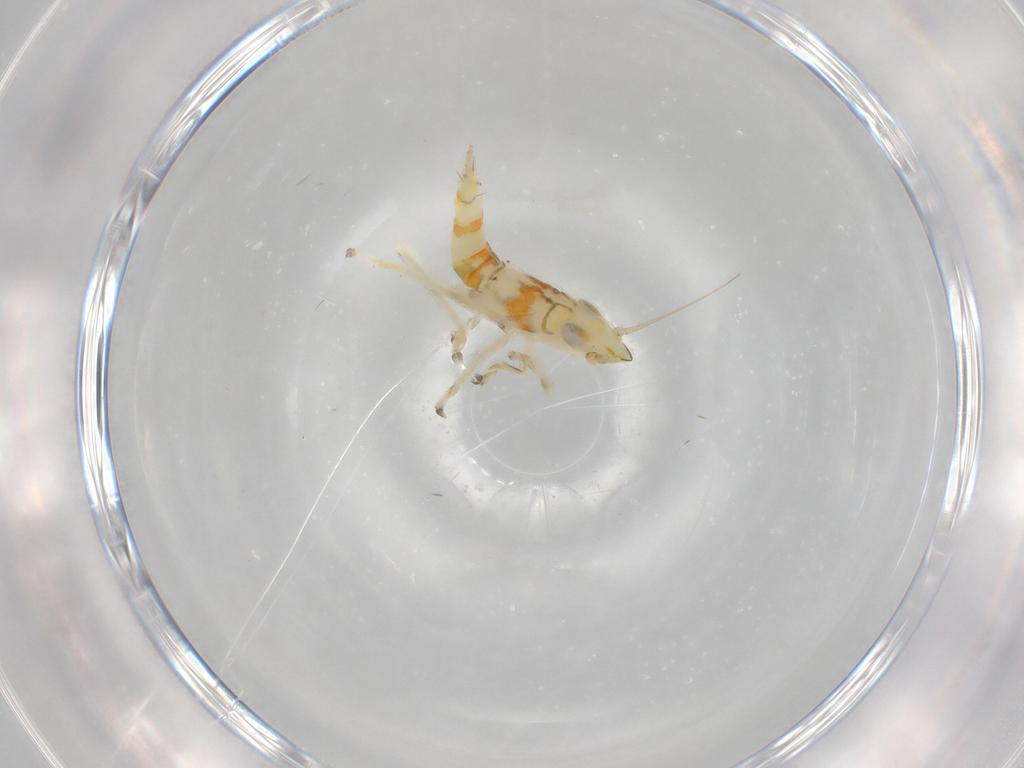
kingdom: Animalia
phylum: Arthropoda
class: Insecta
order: Hemiptera
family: Cicadellidae
